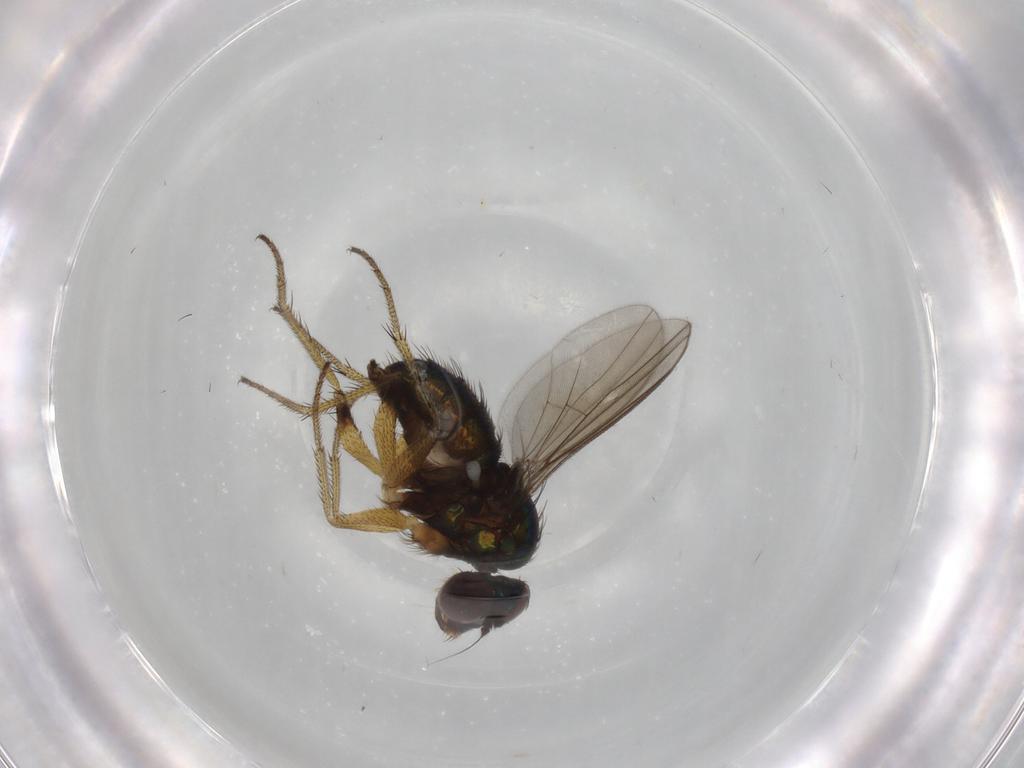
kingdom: Animalia
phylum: Arthropoda
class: Insecta
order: Diptera
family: Dolichopodidae
